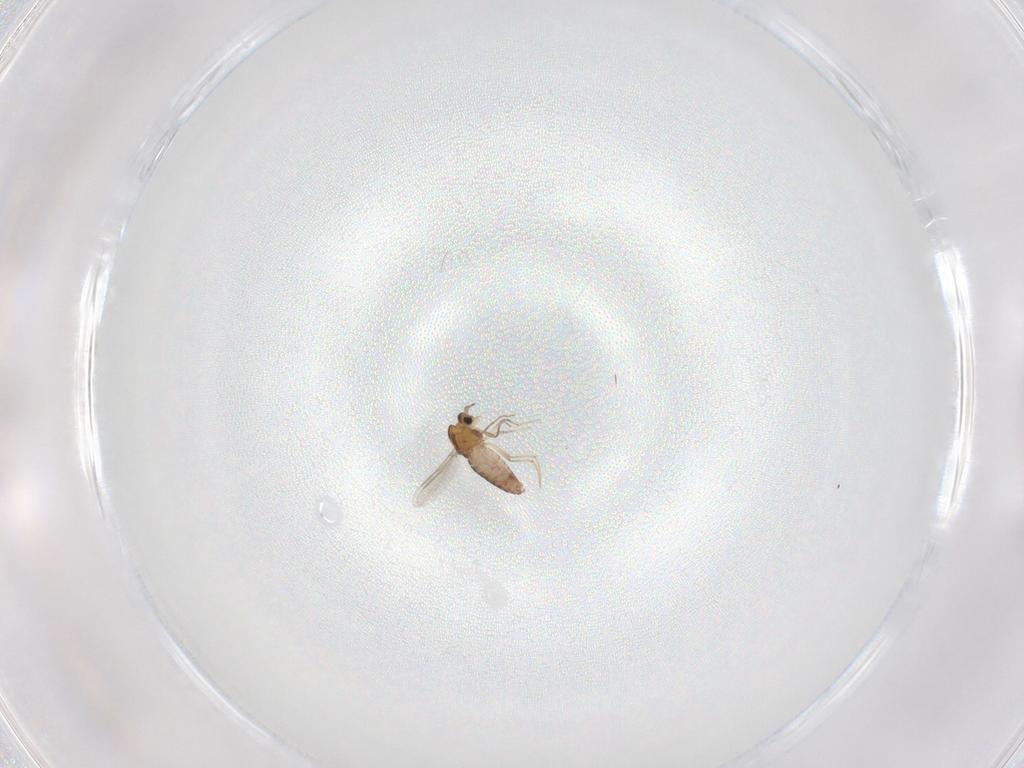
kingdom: Animalia
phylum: Arthropoda
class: Insecta
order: Diptera
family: Chironomidae
